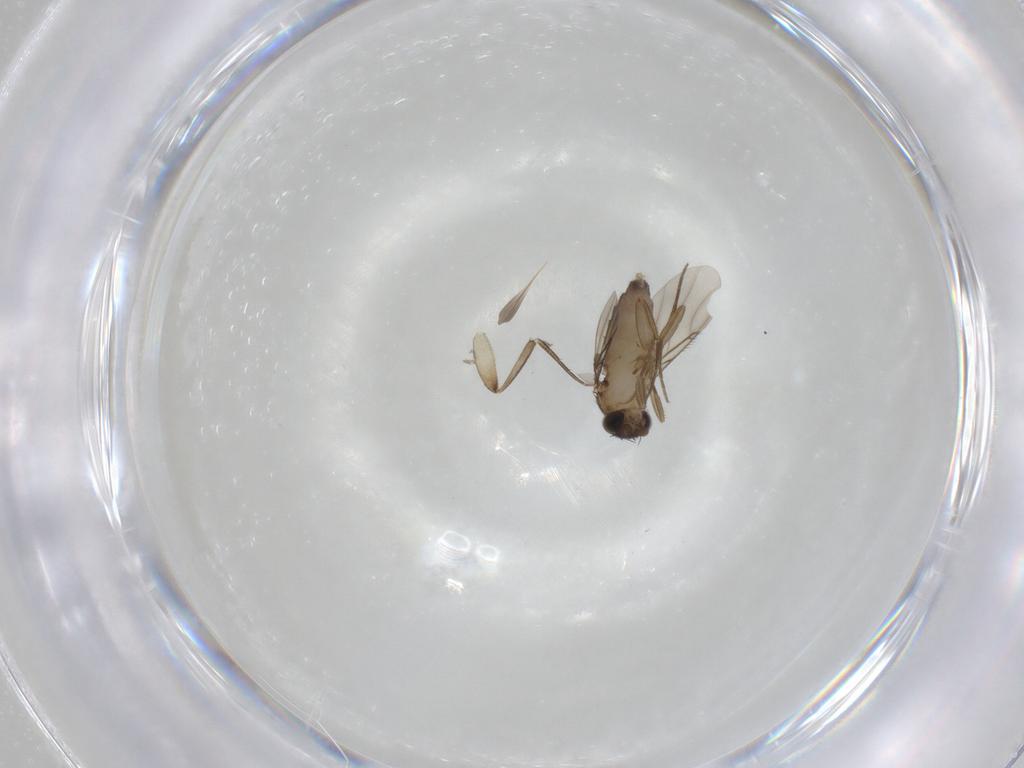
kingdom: Animalia
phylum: Arthropoda
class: Insecta
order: Diptera
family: Phoridae
